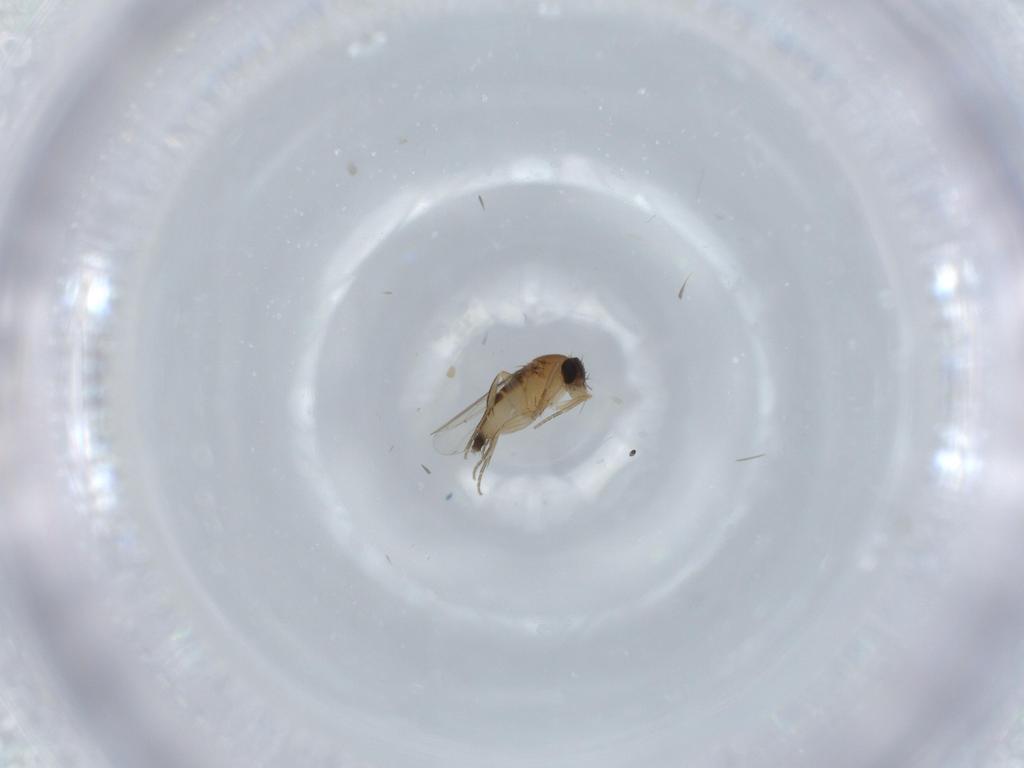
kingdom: Animalia
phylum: Arthropoda
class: Insecta
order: Diptera
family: Phoridae
